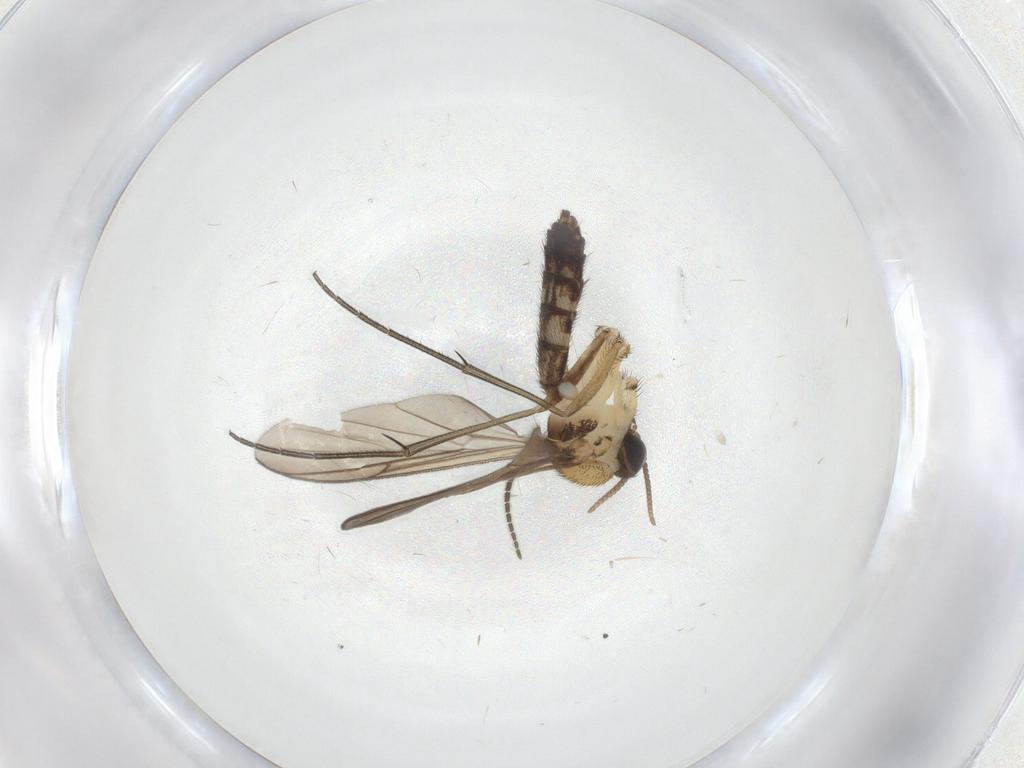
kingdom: Animalia
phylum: Arthropoda
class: Insecta
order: Diptera
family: Keroplatidae
